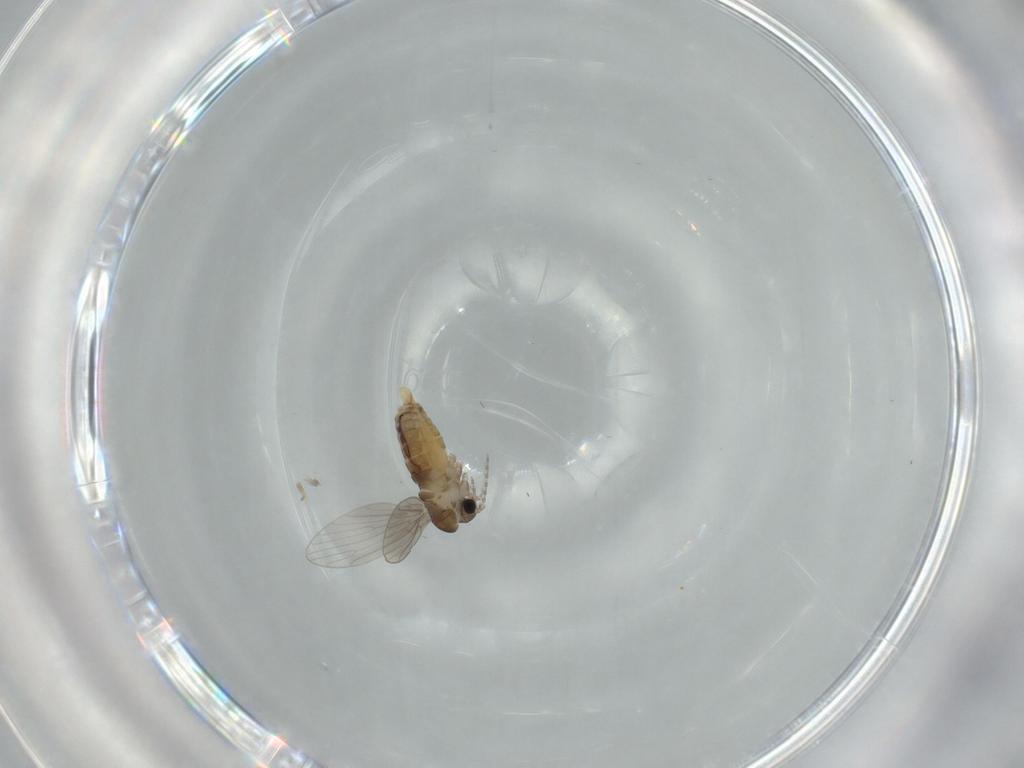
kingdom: Animalia
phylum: Arthropoda
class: Insecta
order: Diptera
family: Psychodidae
